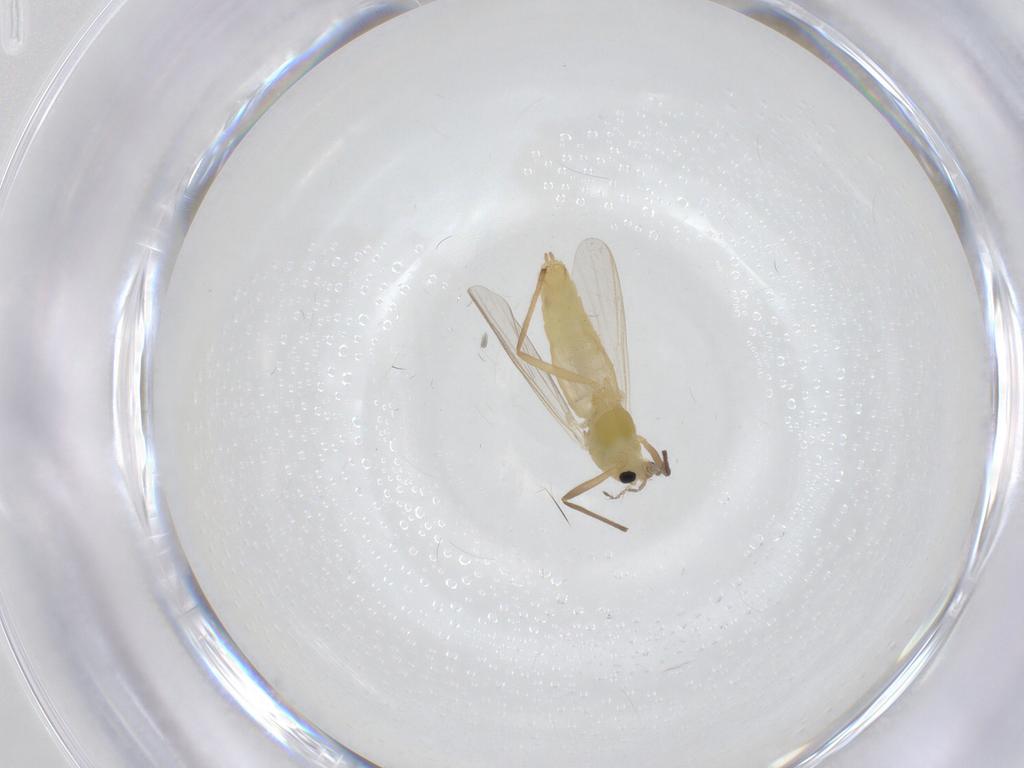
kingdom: Animalia
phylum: Arthropoda
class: Insecta
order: Diptera
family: Chironomidae
